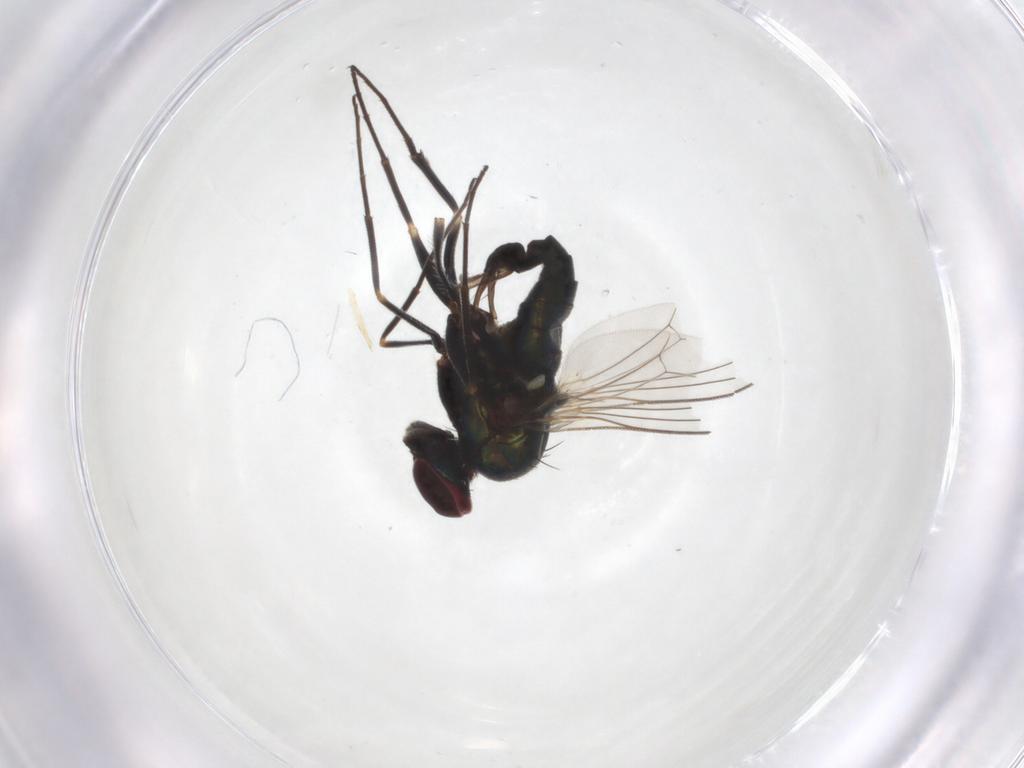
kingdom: Animalia
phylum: Arthropoda
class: Insecta
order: Diptera
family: Dolichopodidae
